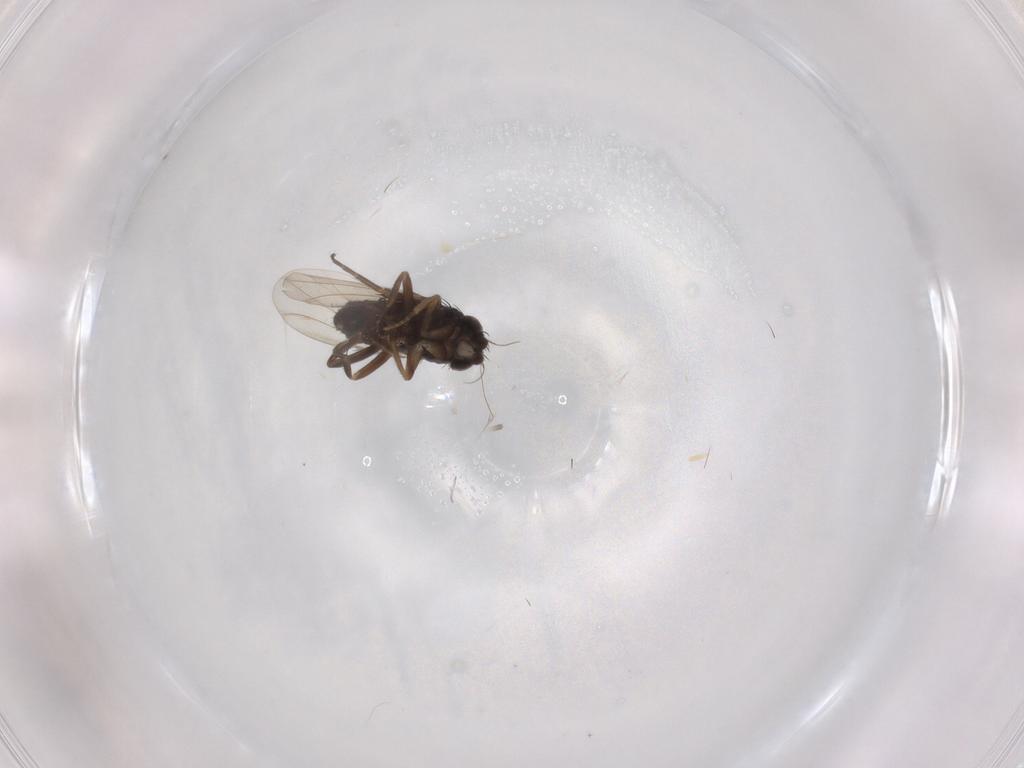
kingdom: Animalia
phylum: Arthropoda
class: Insecta
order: Diptera
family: Phoridae
